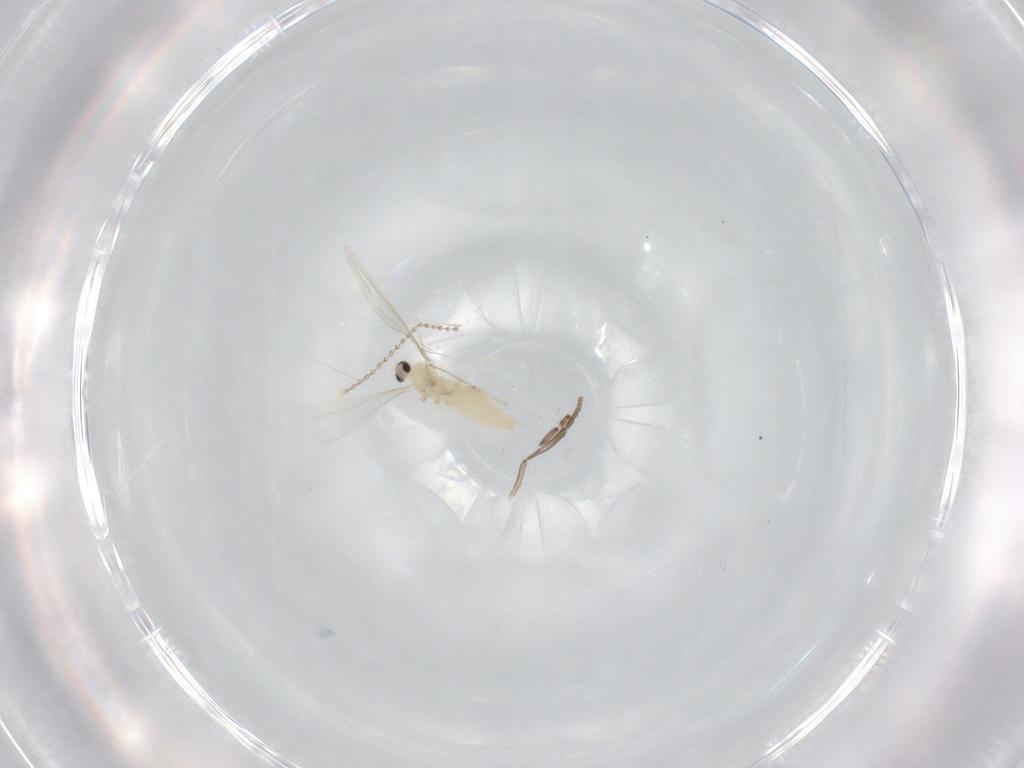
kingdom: Animalia
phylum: Arthropoda
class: Insecta
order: Diptera
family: Cecidomyiidae
